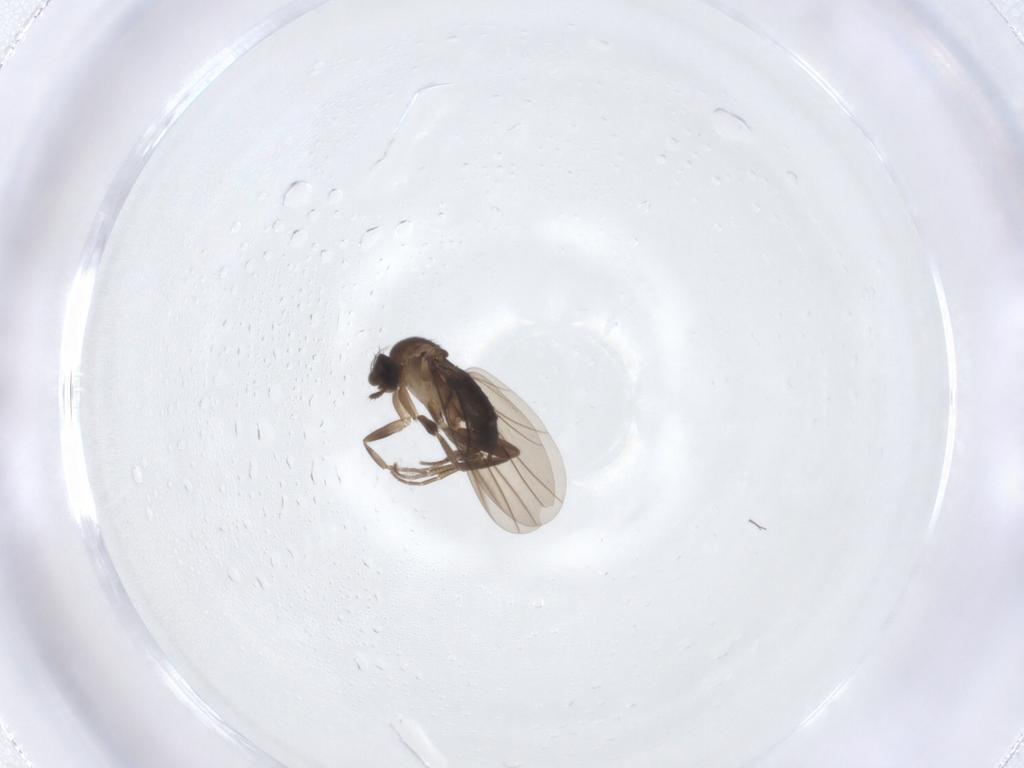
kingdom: Animalia
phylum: Arthropoda
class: Insecta
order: Diptera
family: Phoridae
